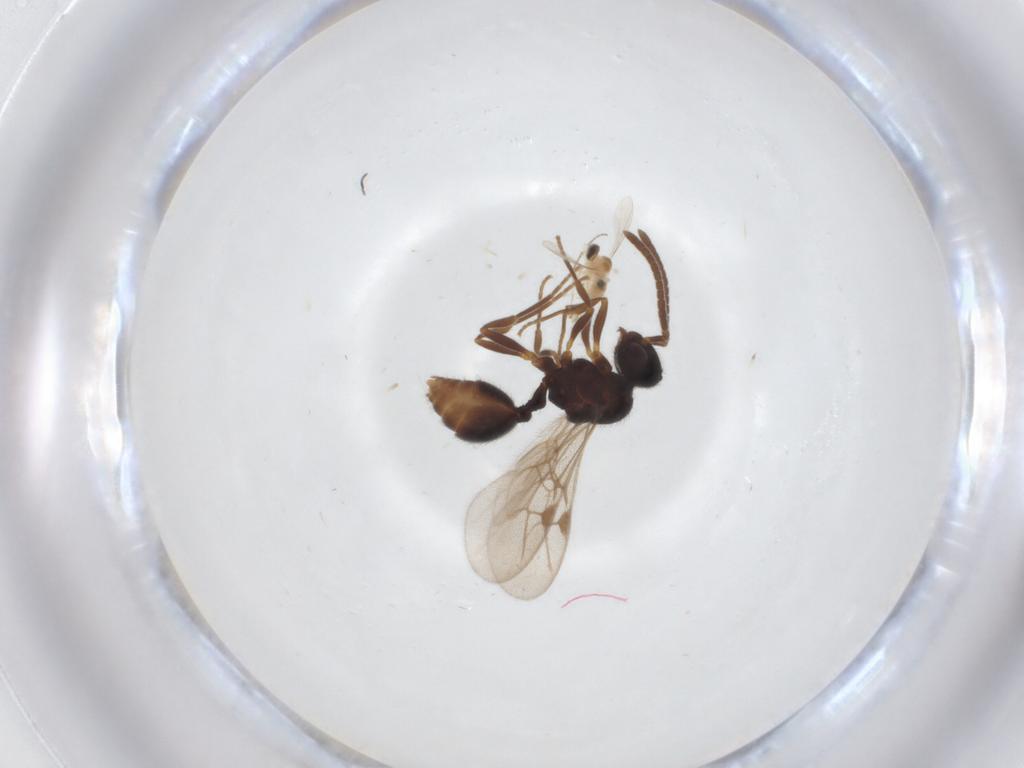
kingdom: Animalia
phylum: Arthropoda
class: Insecta
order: Hymenoptera
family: Formicidae
